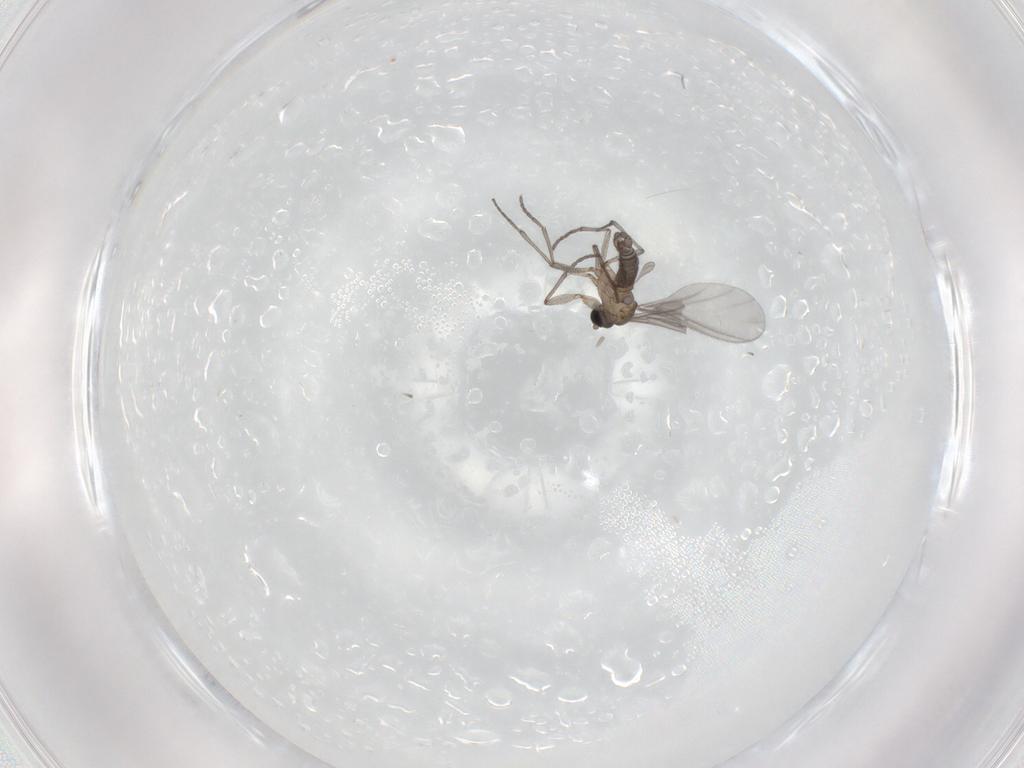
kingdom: Animalia
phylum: Arthropoda
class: Insecta
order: Diptera
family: Sciaridae
